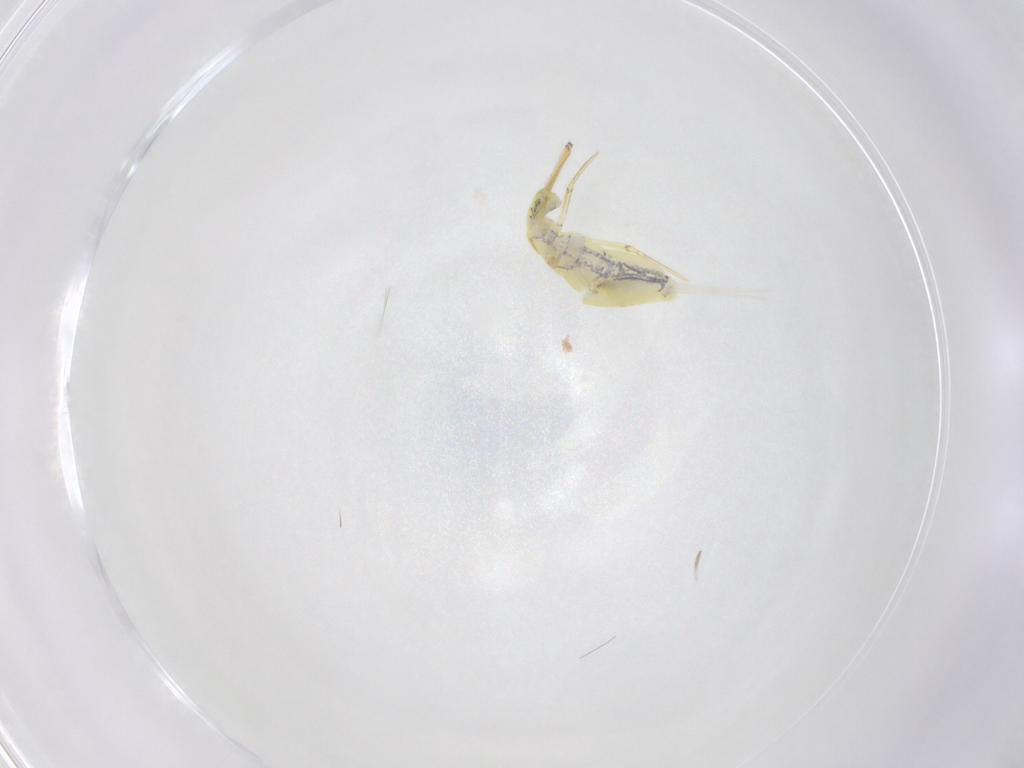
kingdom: Animalia
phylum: Arthropoda
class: Collembola
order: Entomobryomorpha
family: Paronellidae
